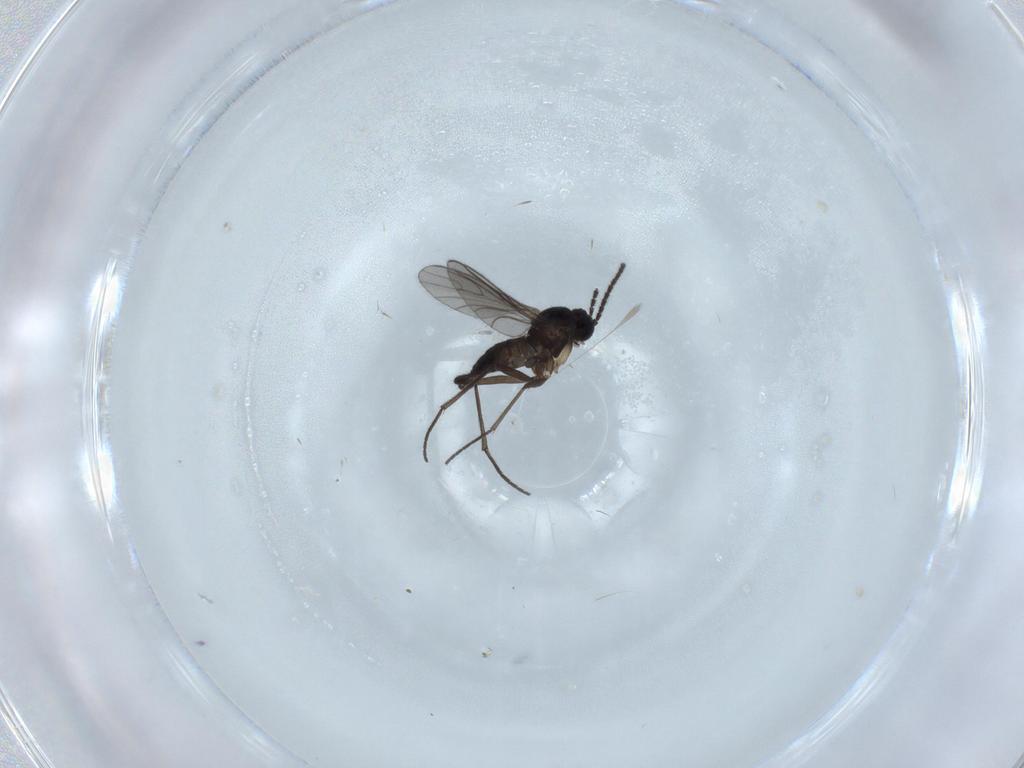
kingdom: Animalia
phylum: Arthropoda
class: Insecta
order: Diptera
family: Sciaridae
